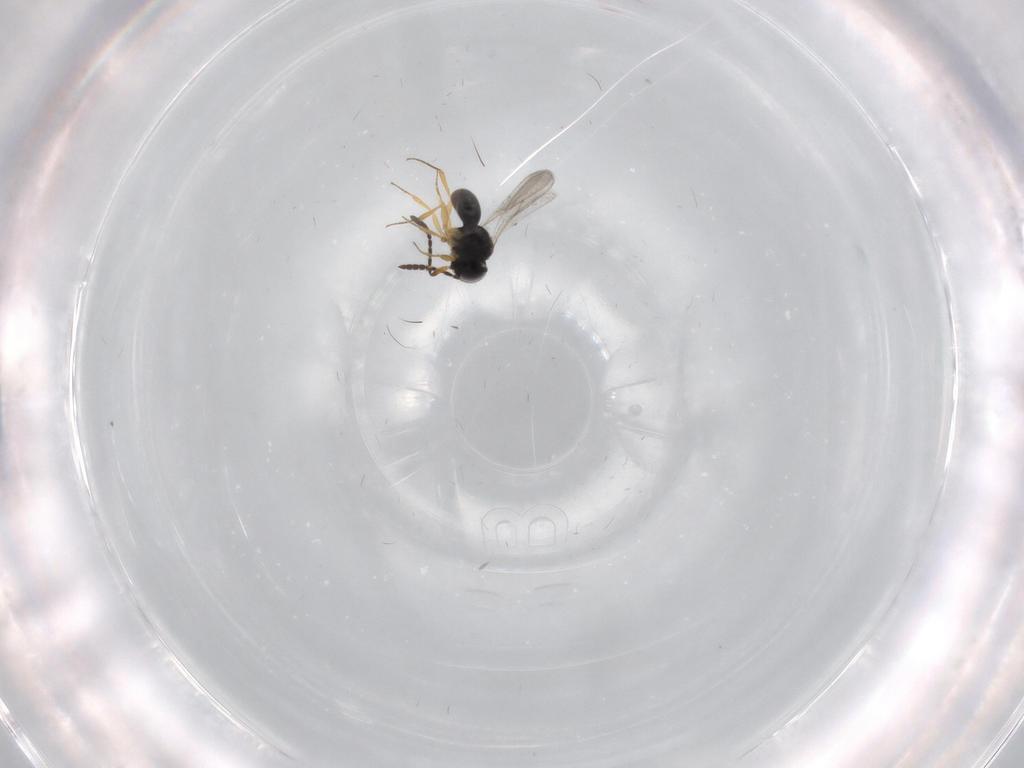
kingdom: Animalia
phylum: Arthropoda
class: Insecta
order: Hymenoptera
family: Scelionidae
